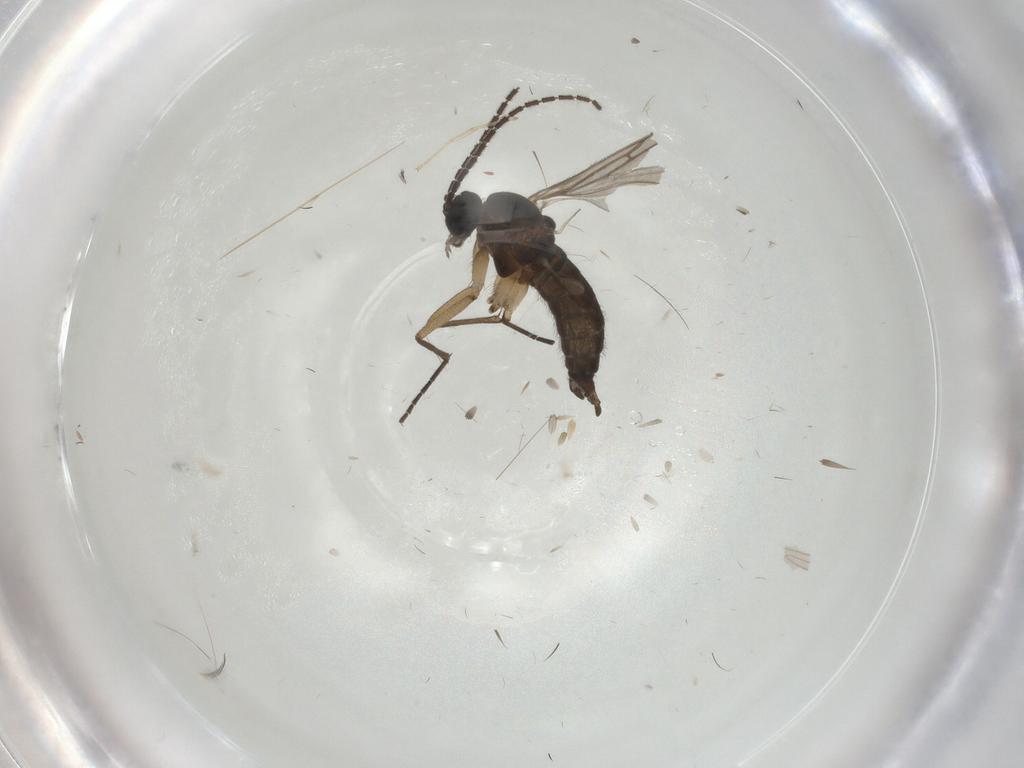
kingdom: Animalia
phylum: Arthropoda
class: Insecta
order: Diptera
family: Sciaridae
